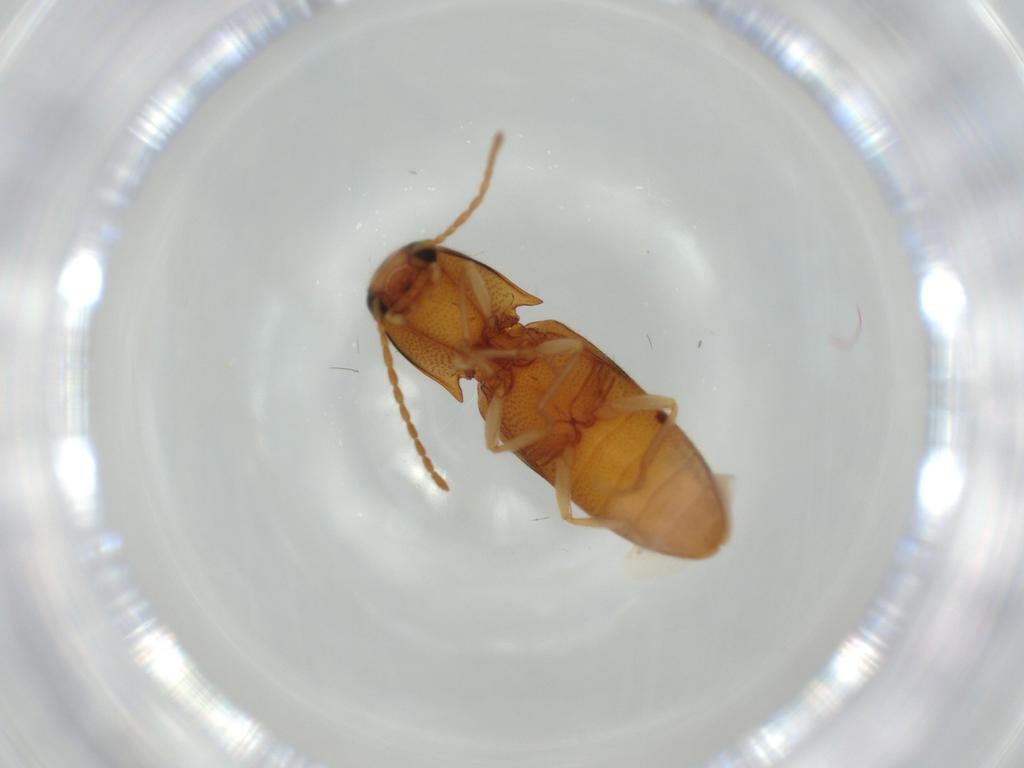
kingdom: Animalia
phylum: Arthropoda
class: Insecta
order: Coleoptera
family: Elateridae
